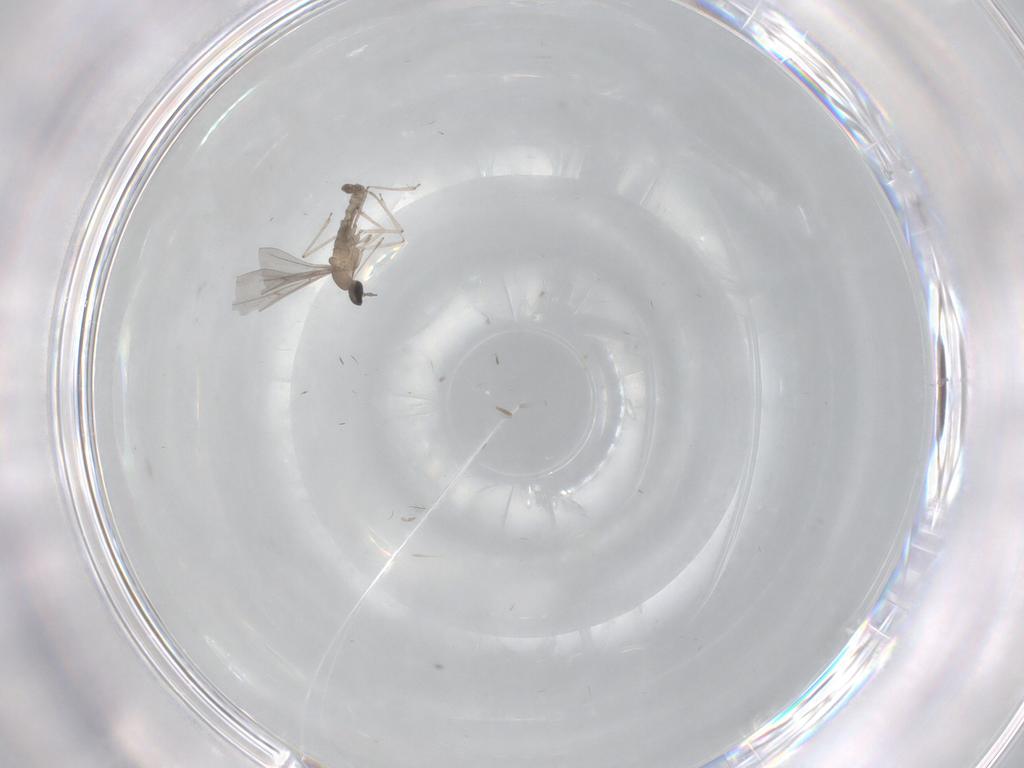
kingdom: Animalia
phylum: Arthropoda
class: Insecta
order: Diptera
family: Cecidomyiidae
